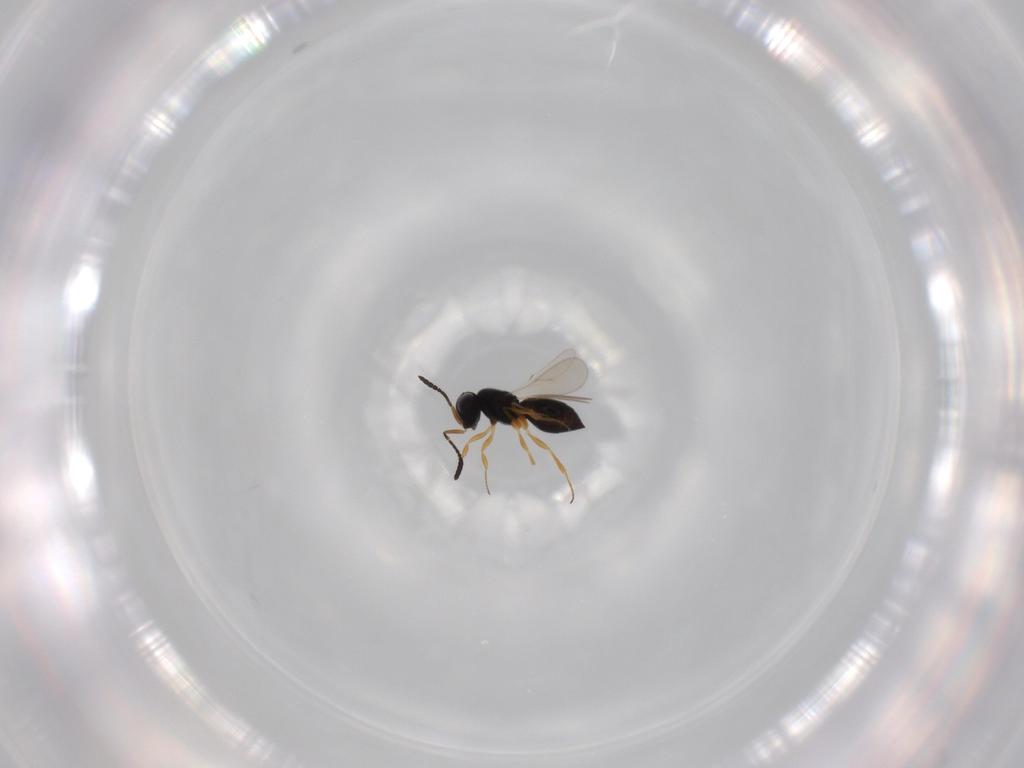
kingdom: Animalia
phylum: Arthropoda
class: Insecta
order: Hymenoptera
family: Scelionidae
